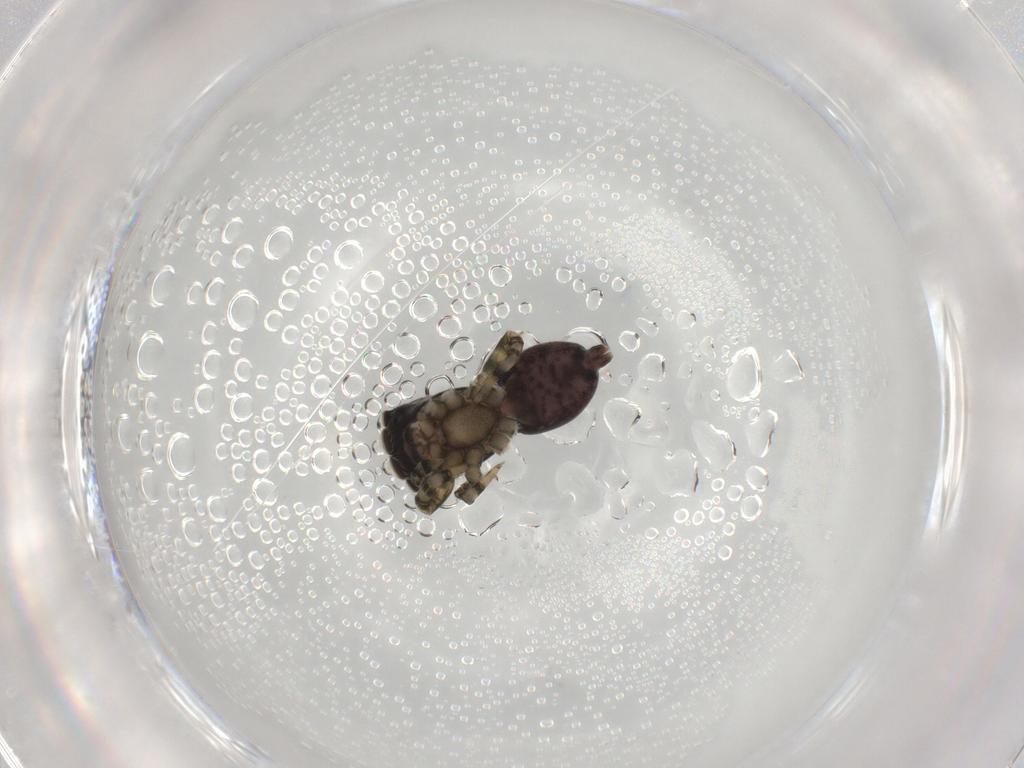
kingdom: Animalia
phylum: Arthropoda
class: Arachnida
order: Araneae
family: Salticidae
